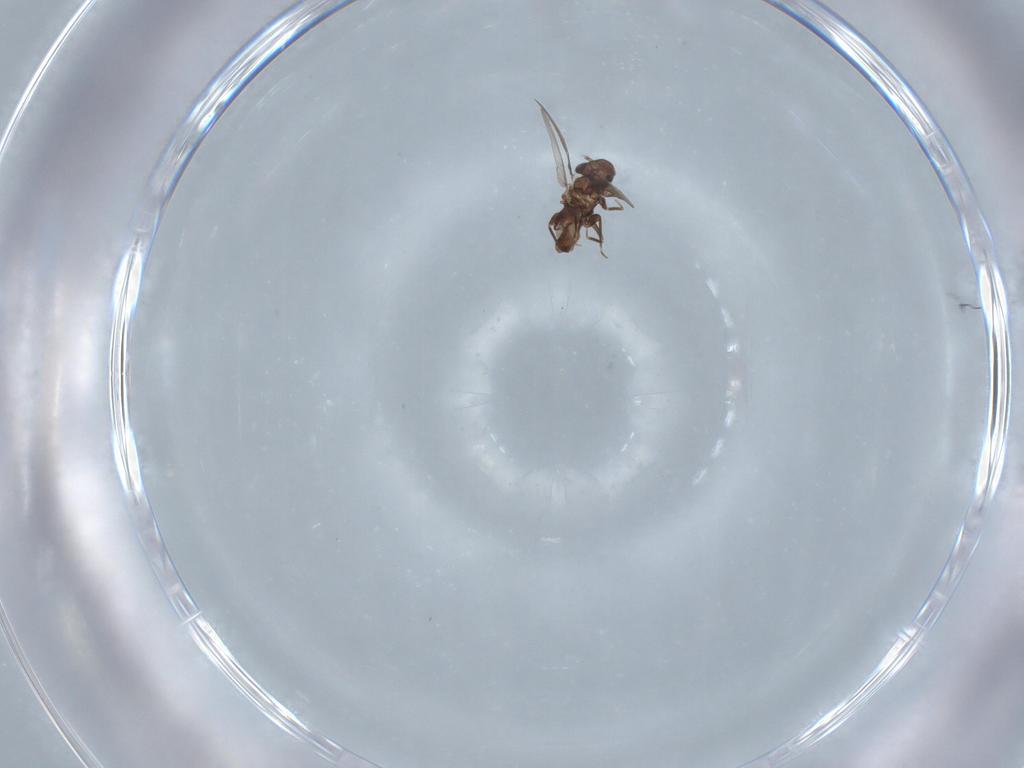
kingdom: Animalia
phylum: Arthropoda
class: Insecta
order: Psocodea
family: Psoquillidae
